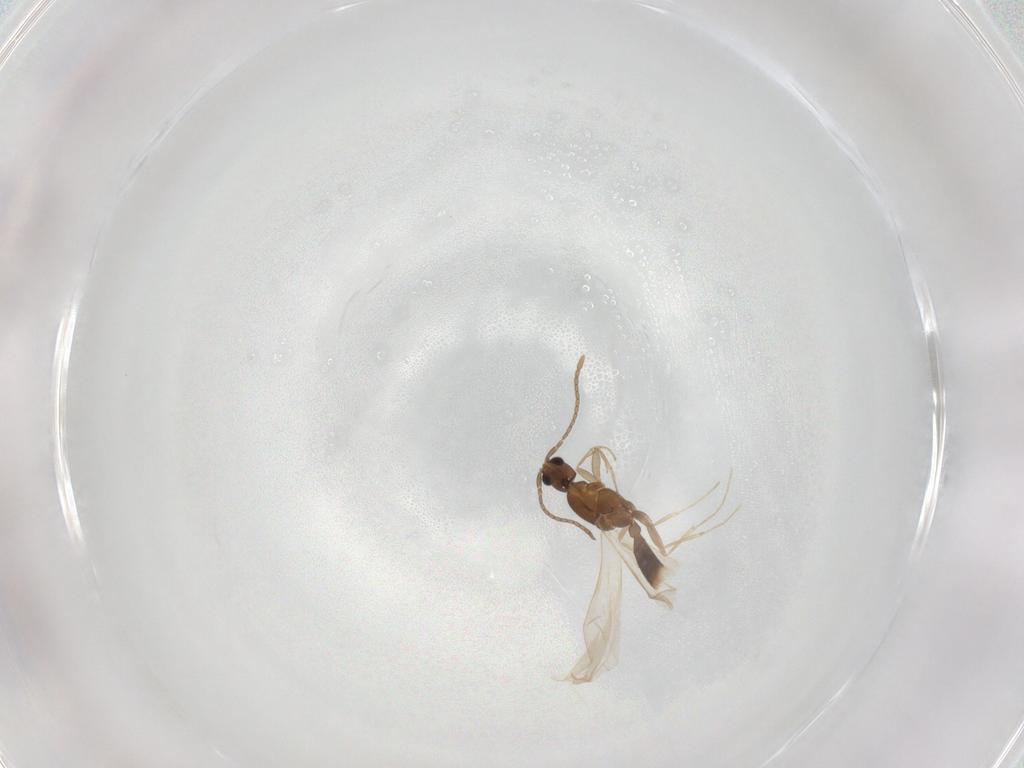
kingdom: Animalia
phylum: Arthropoda
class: Insecta
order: Hymenoptera
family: Formicidae
